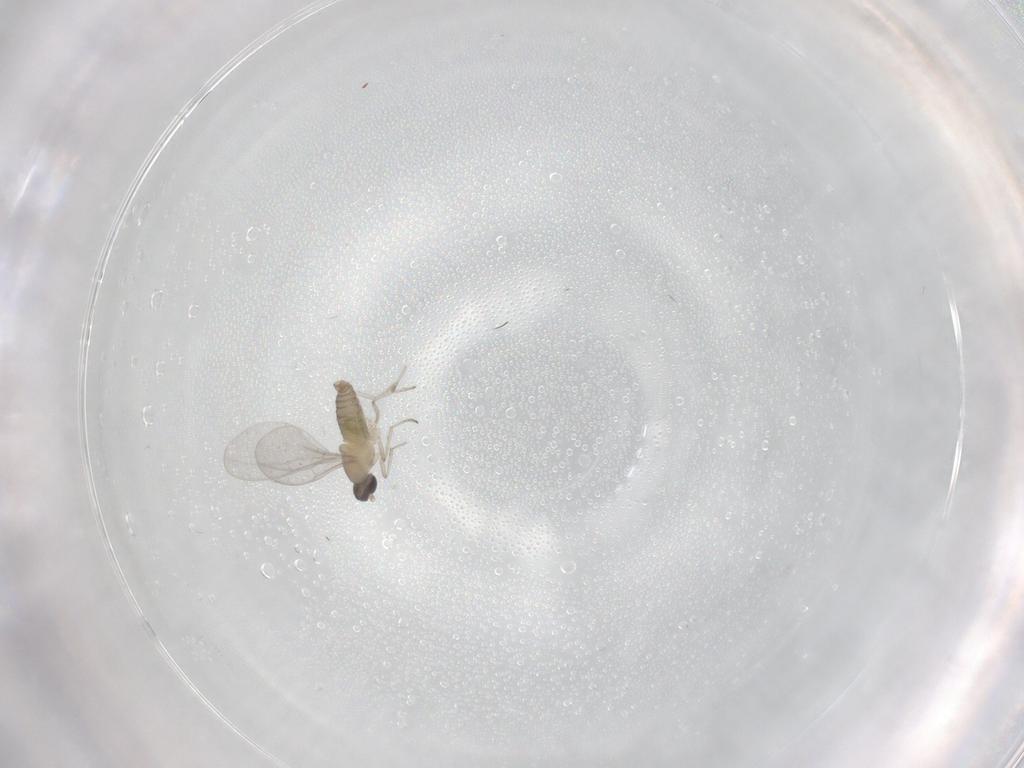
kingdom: Animalia
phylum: Arthropoda
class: Insecta
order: Diptera
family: Cecidomyiidae
